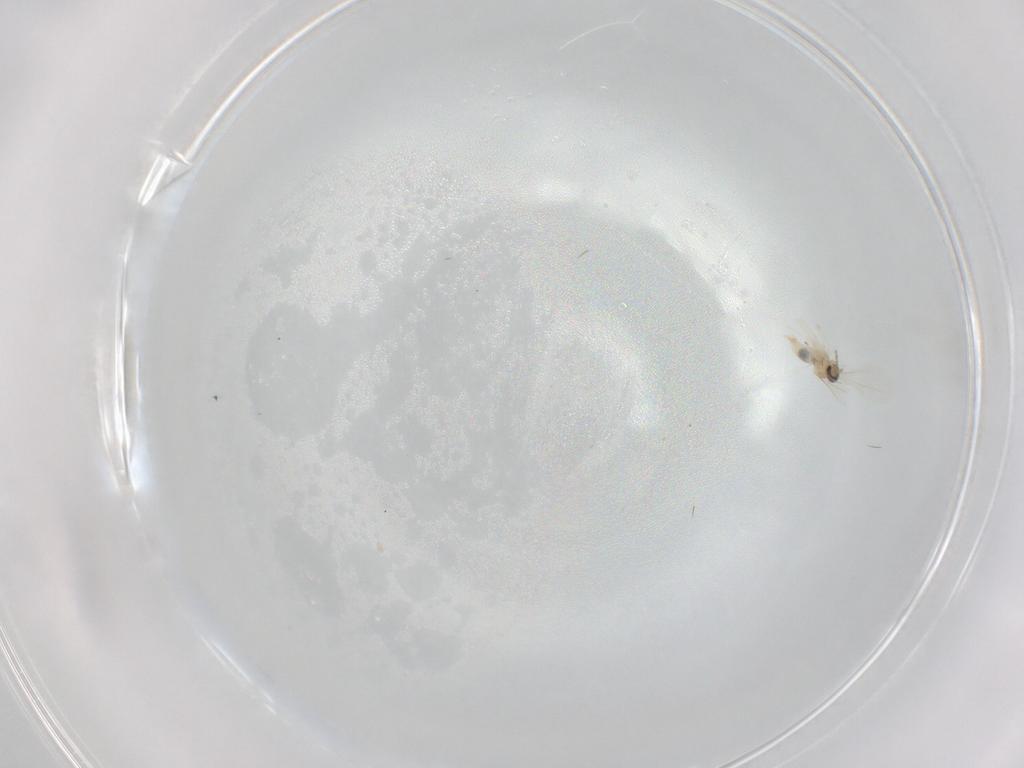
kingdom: Animalia
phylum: Arthropoda
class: Insecta
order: Diptera
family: Cecidomyiidae
